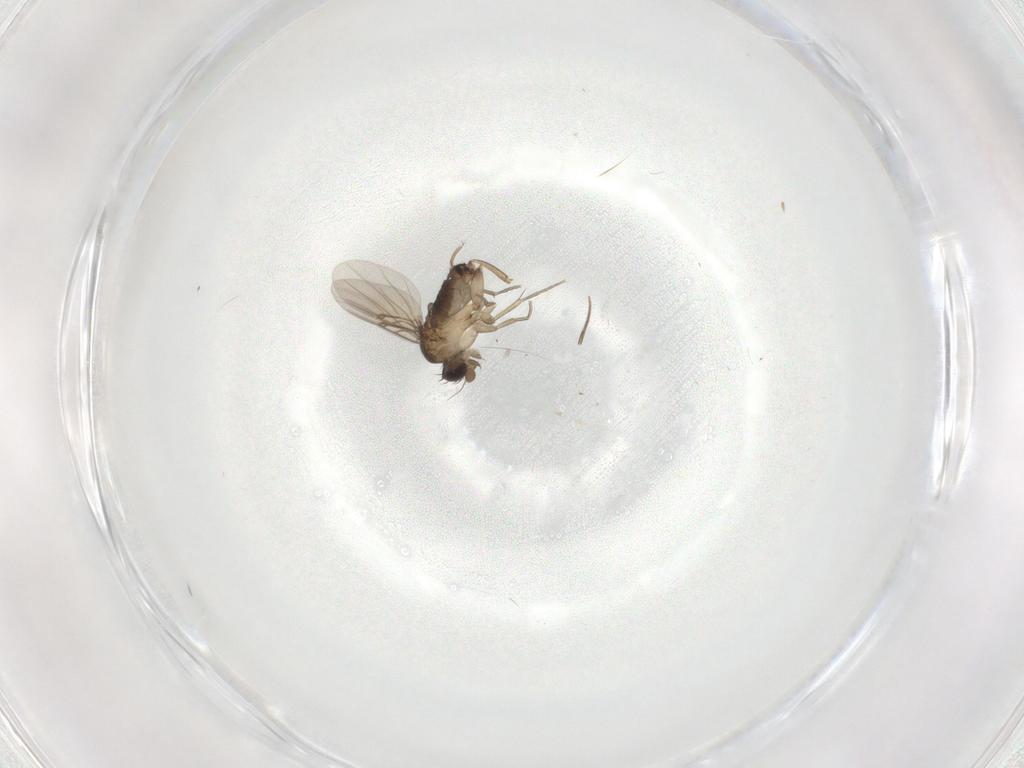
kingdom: Animalia
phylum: Arthropoda
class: Insecta
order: Diptera
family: Phoridae
